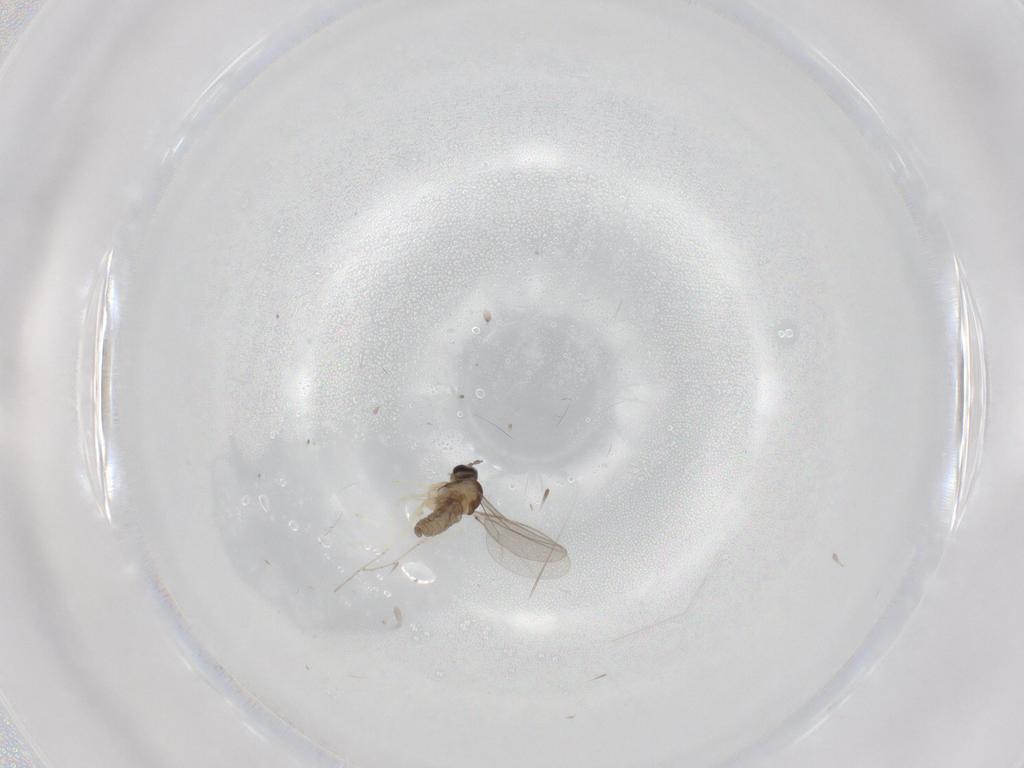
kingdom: Animalia
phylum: Arthropoda
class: Insecta
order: Diptera
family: Cecidomyiidae
